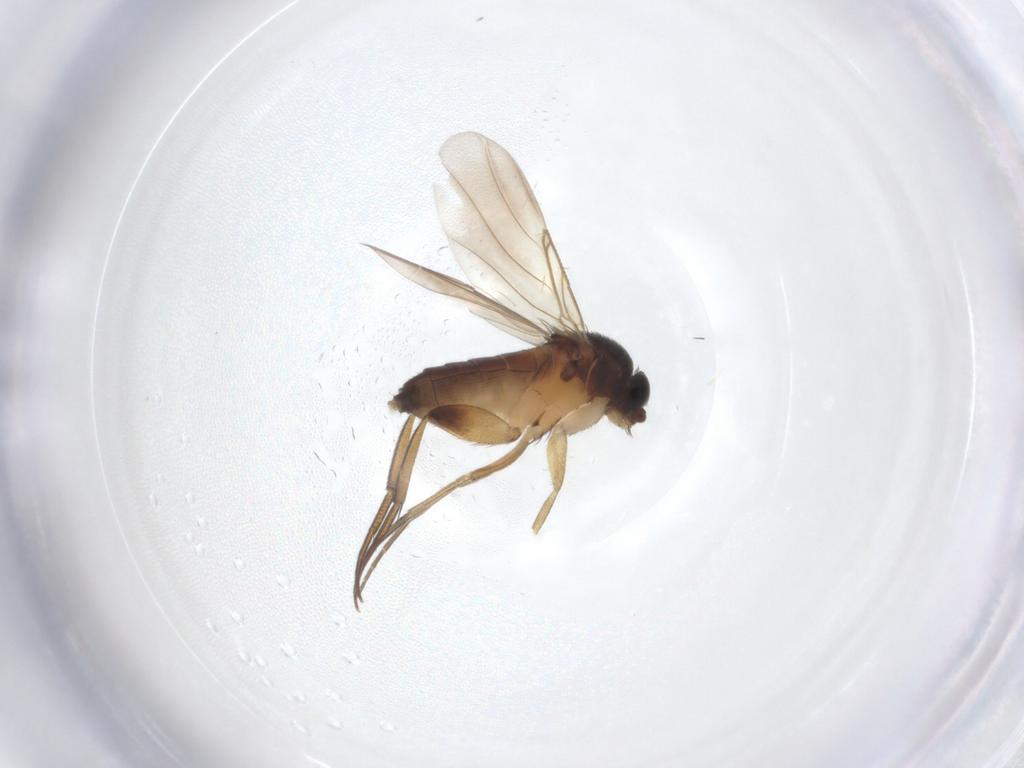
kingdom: Animalia
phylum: Arthropoda
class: Insecta
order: Diptera
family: Phoridae
